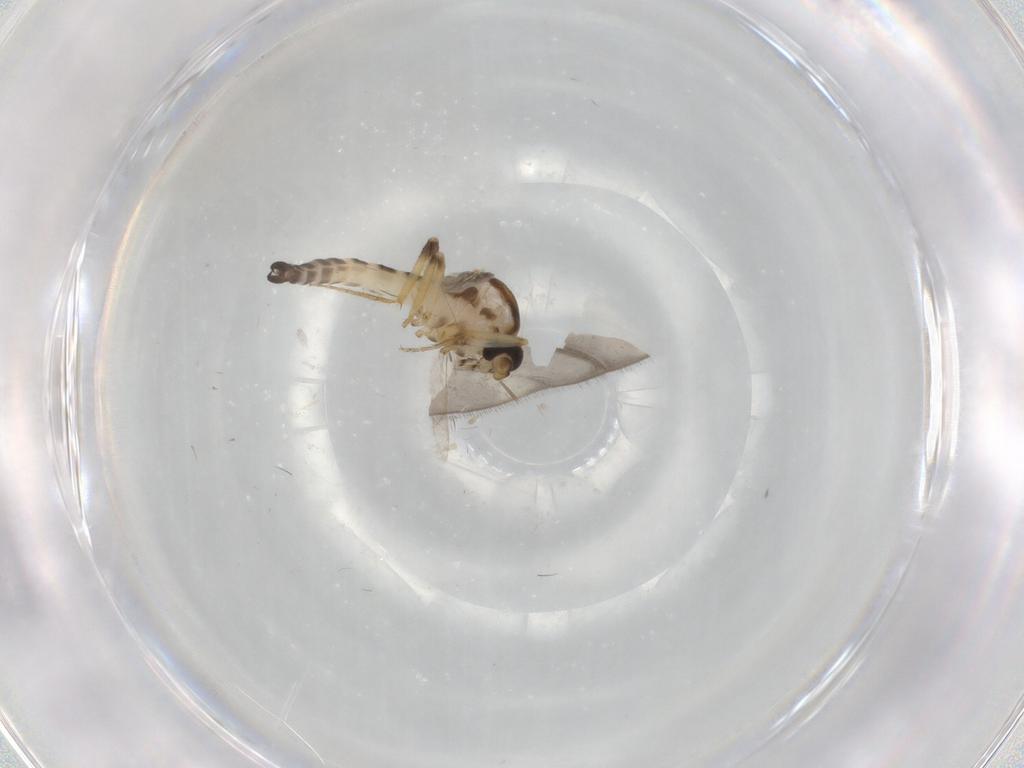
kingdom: Animalia
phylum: Arthropoda
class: Insecta
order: Diptera
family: Ceratopogonidae
